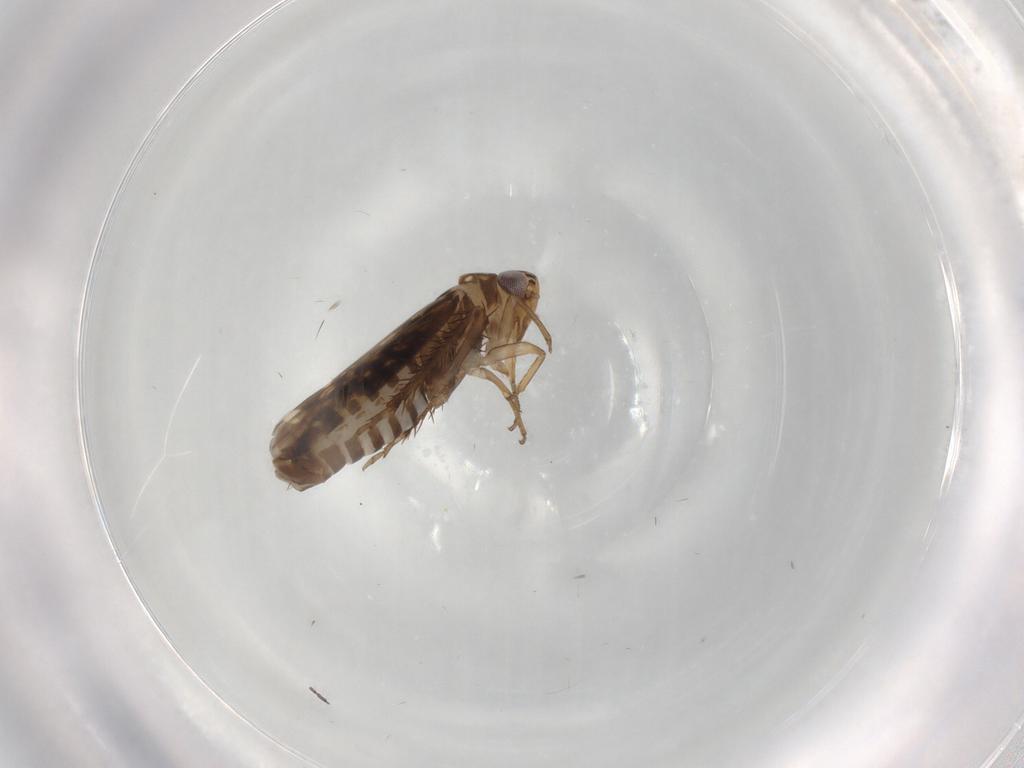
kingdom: Animalia
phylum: Arthropoda
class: Insecta
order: Hemiptera
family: Cicadellidae
